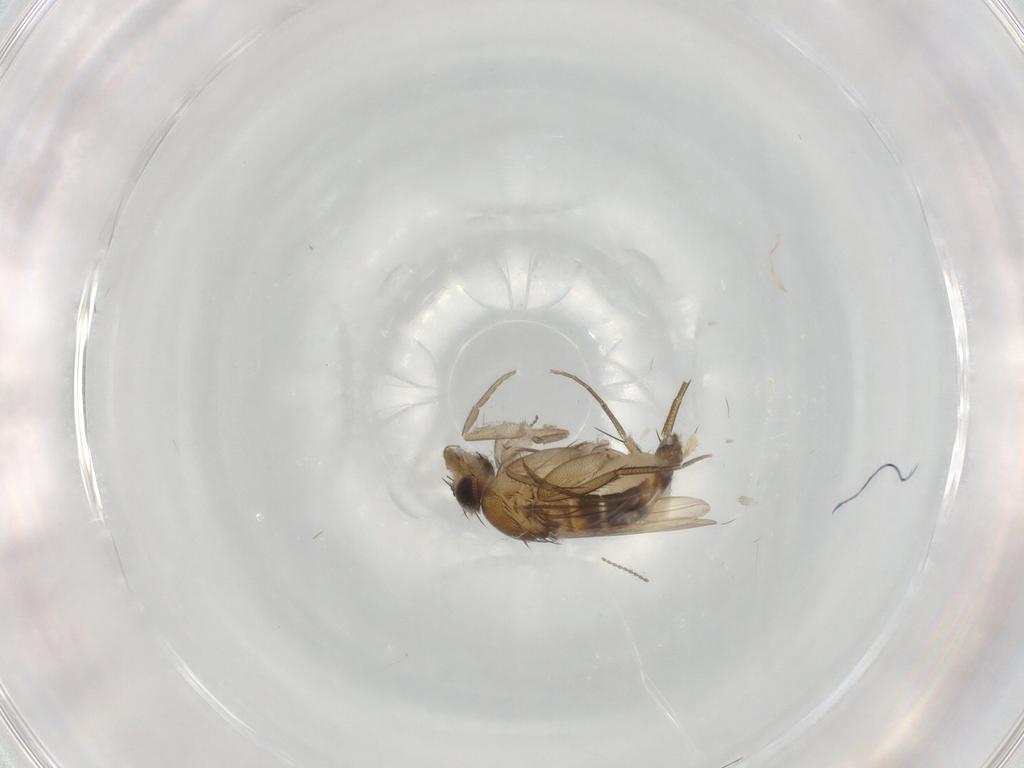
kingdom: Animalia
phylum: Arthropoda
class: Insecta
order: Diptera
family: Phoridae
